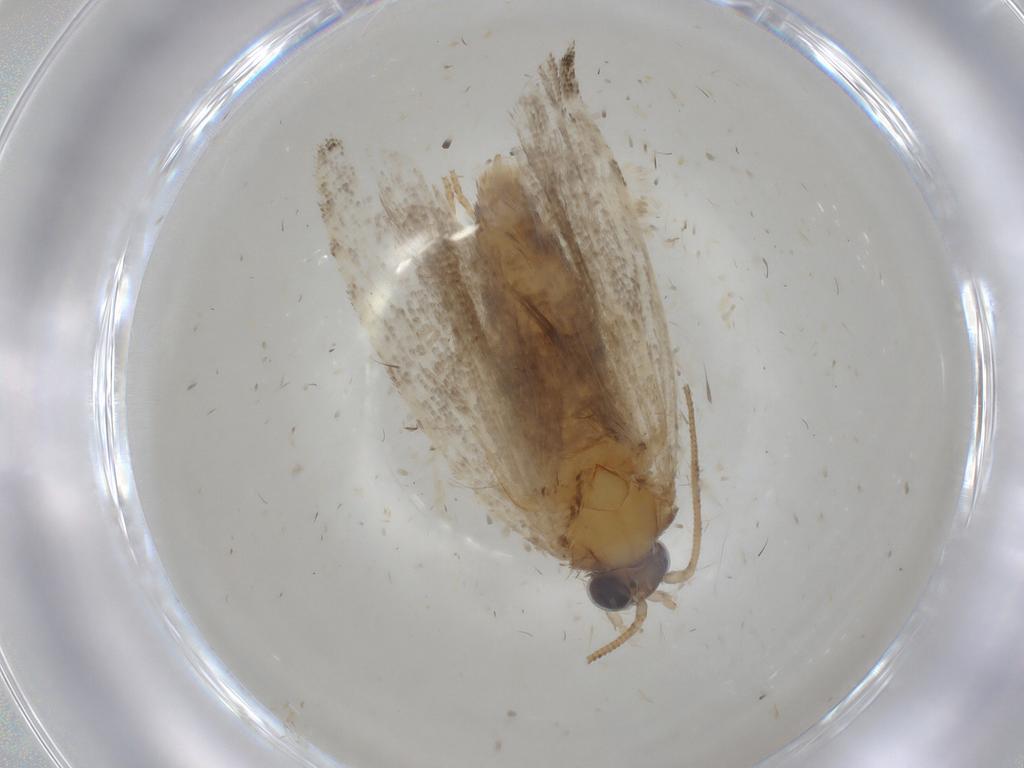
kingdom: Animalia
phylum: Arthropoda
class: Insecta
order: Lepidoptera
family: Tortricidae
